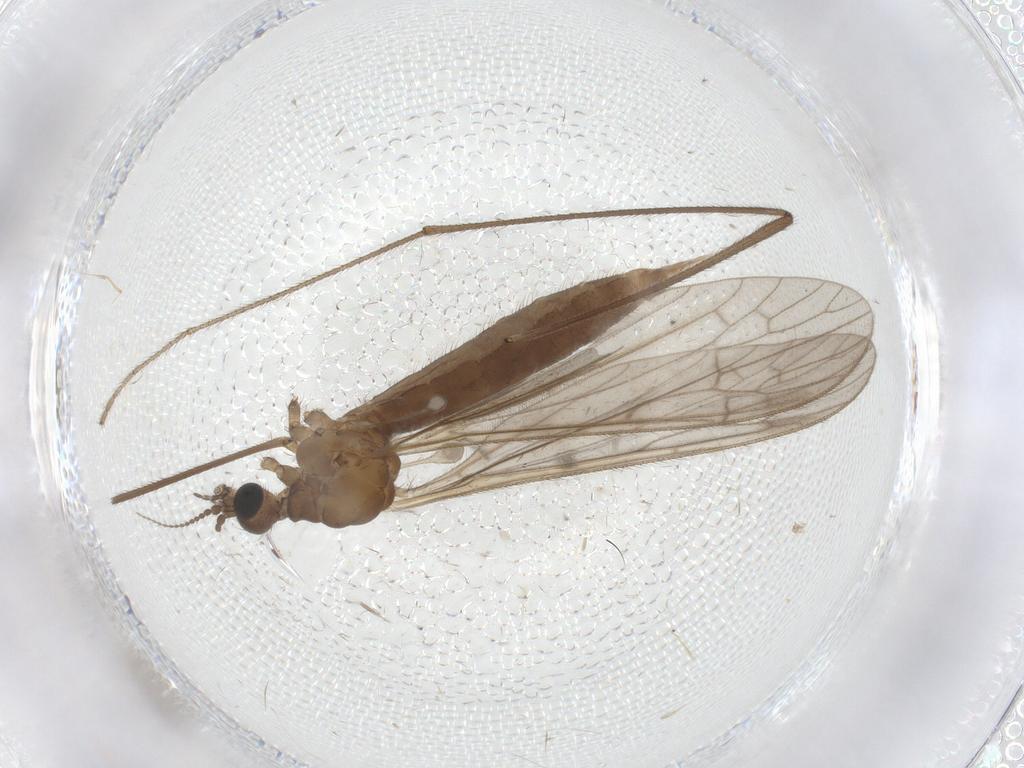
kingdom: Animalia
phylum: Arthropoda
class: Insecta
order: Diptera
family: Limoniidae
